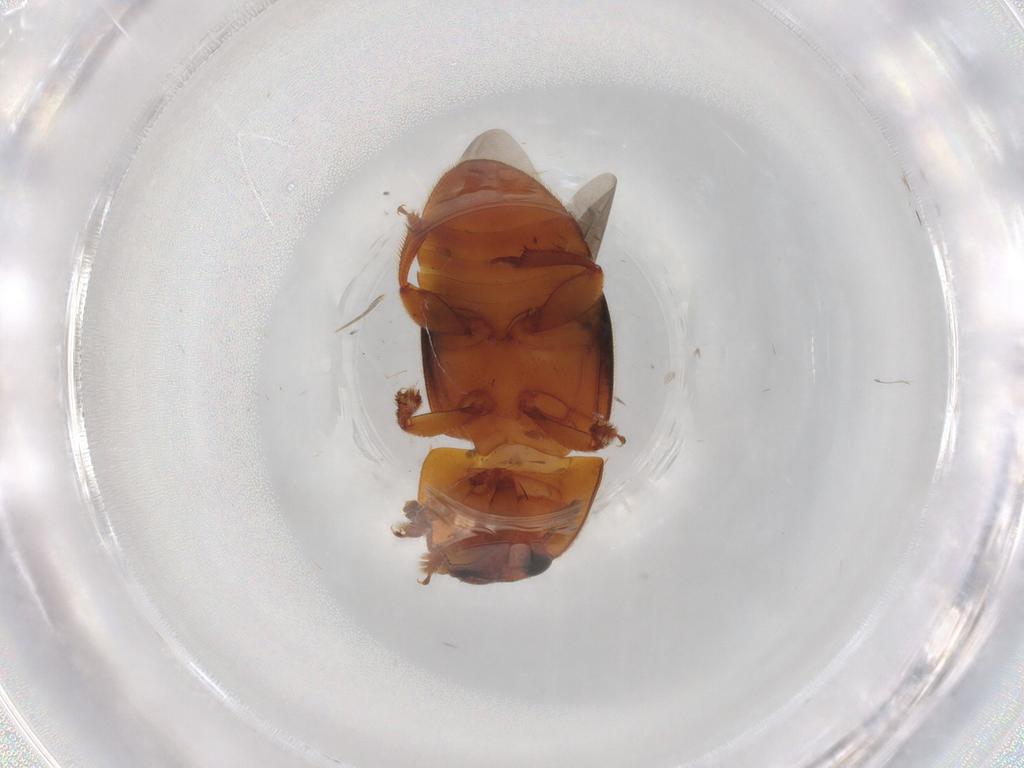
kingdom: Animalia
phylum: Arthropoda
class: Insecta
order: Coleoptera
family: Nitidulidae
